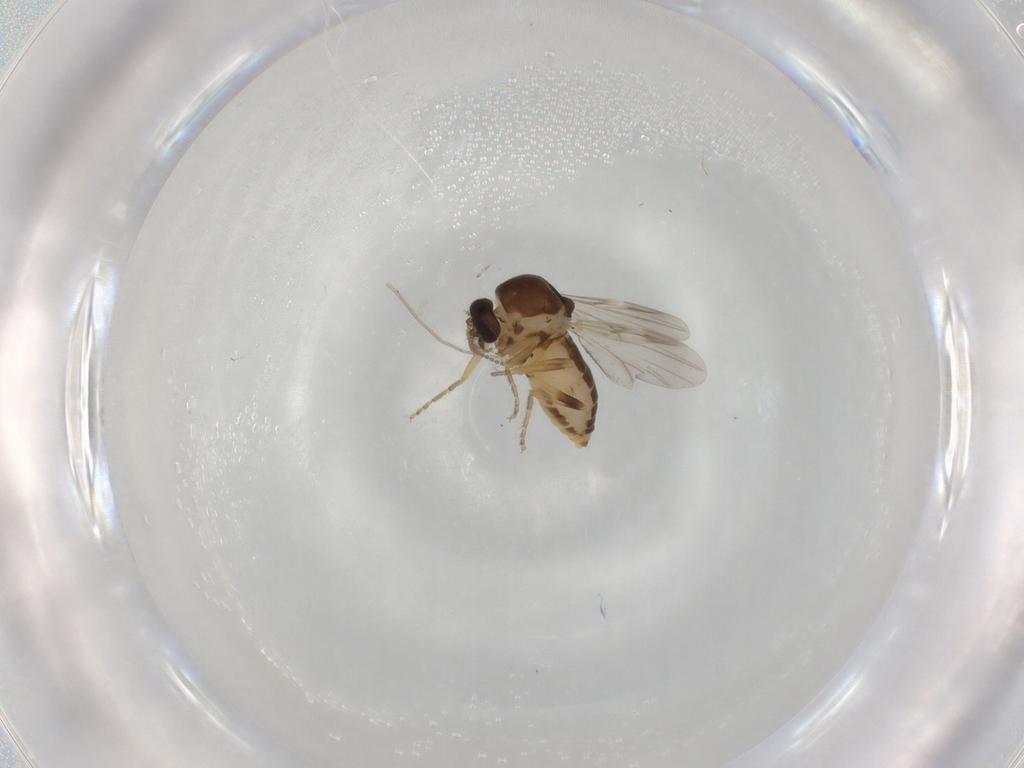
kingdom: Animalia
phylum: Arthropoda
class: Insecta
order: Diptera
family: Ceratopogonidae
